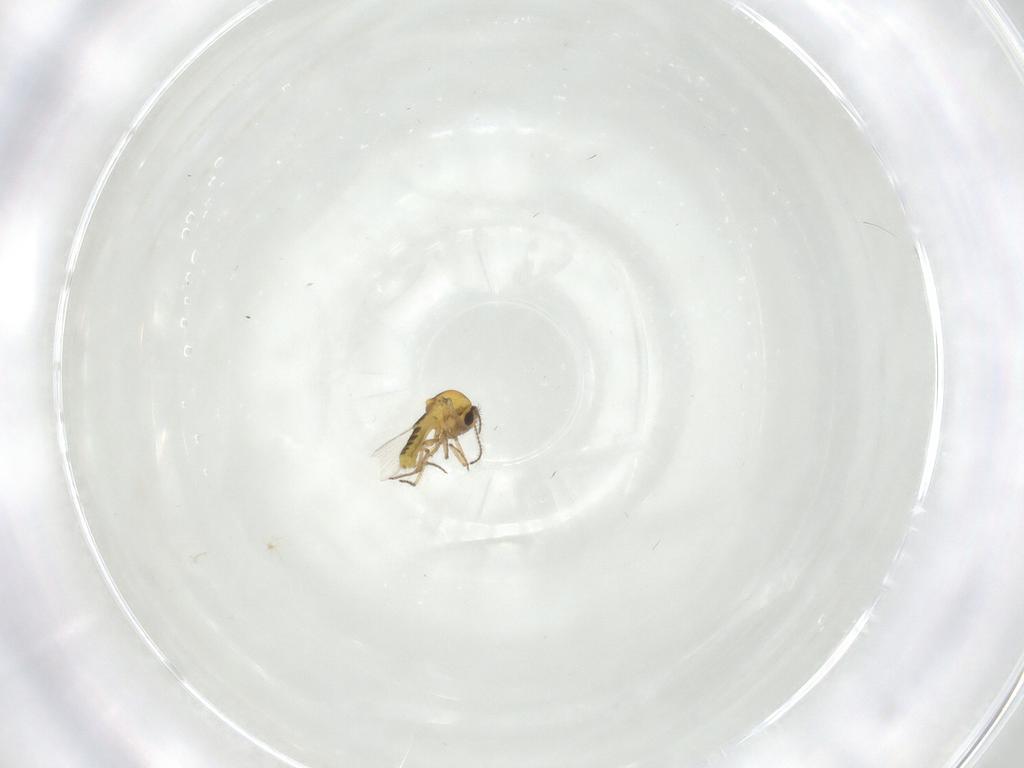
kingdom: Animalia
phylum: Arthropoda
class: Insecta
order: Diptera
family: Ceratopogonidae
